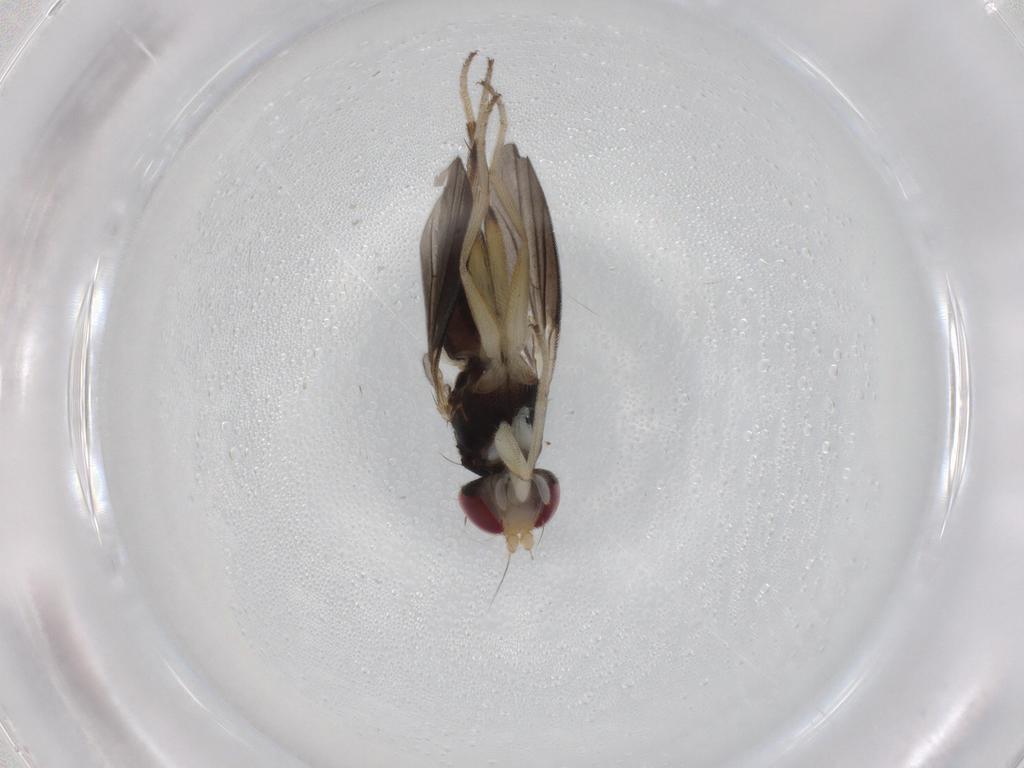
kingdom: Animalia
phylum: Arthropoda
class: Insecta
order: Diptera
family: Clusiidae
